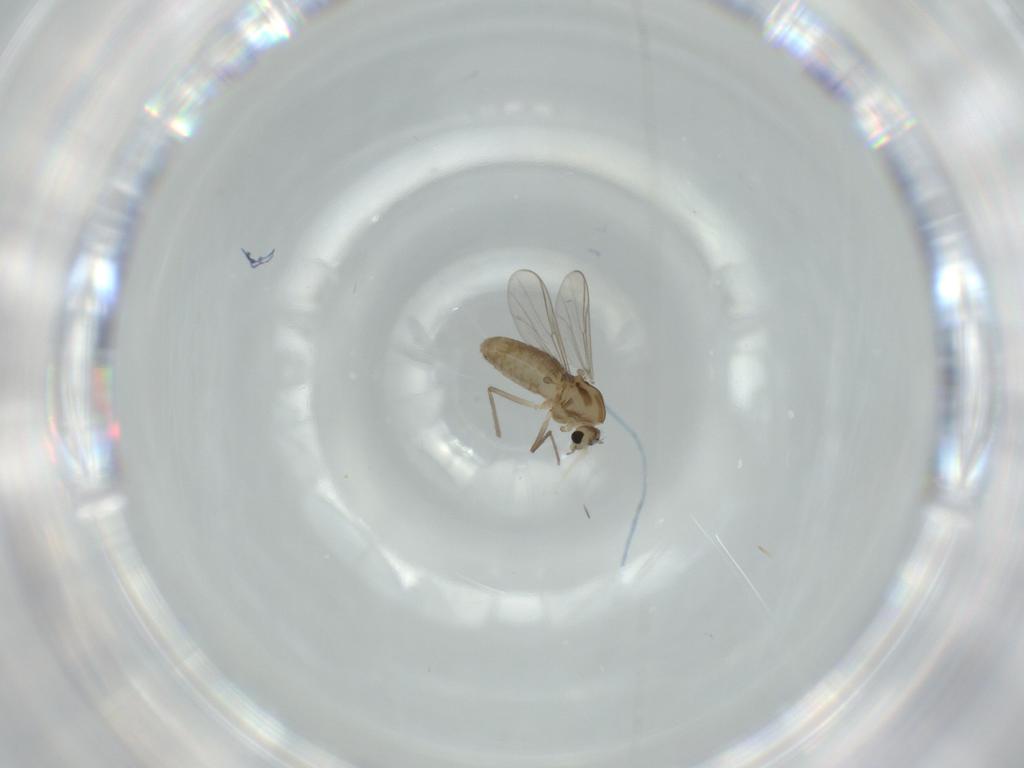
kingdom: Animalia
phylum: Arthropoda
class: Insecta
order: Diptera
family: Chironomidae
